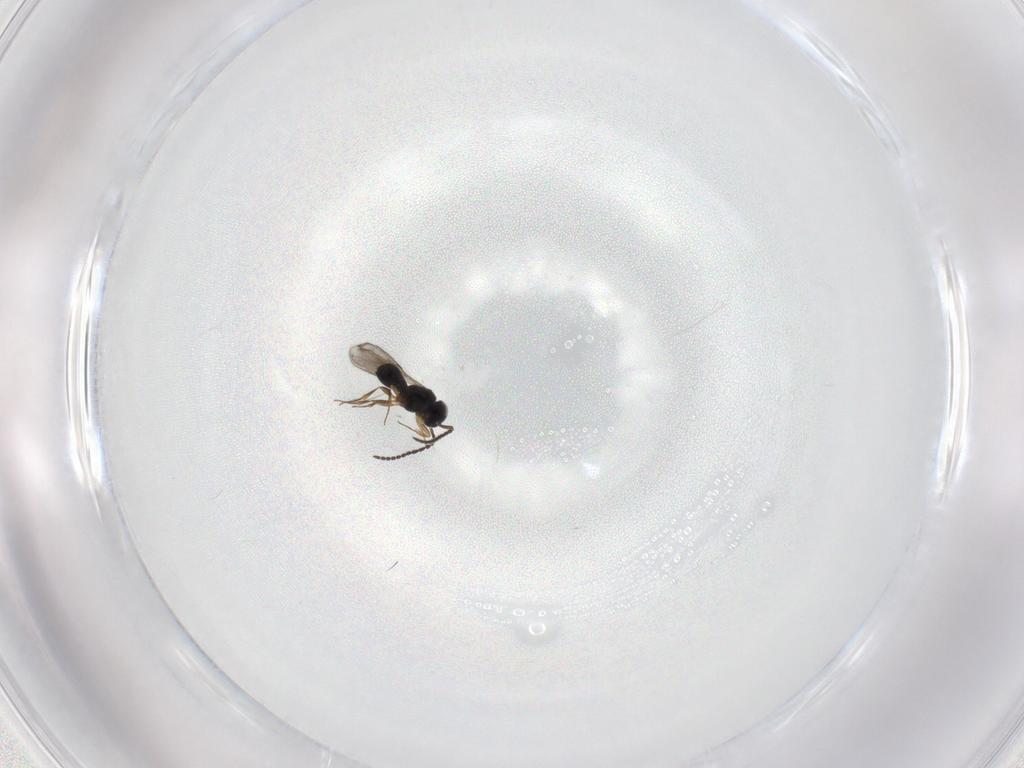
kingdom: Animalia
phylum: Arthropoda
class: Insecta
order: Hymenoptera
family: Scelionidae
